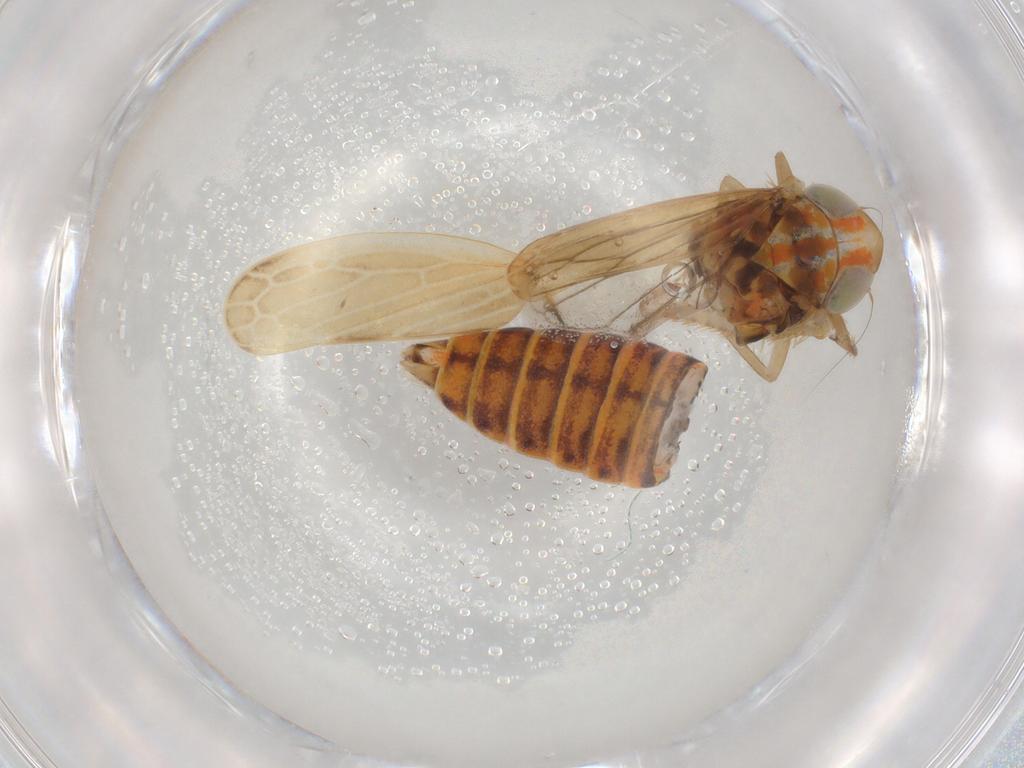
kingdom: Animalia
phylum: Arthropoda
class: Insecta
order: Hemiptera
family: Cicadellidae
